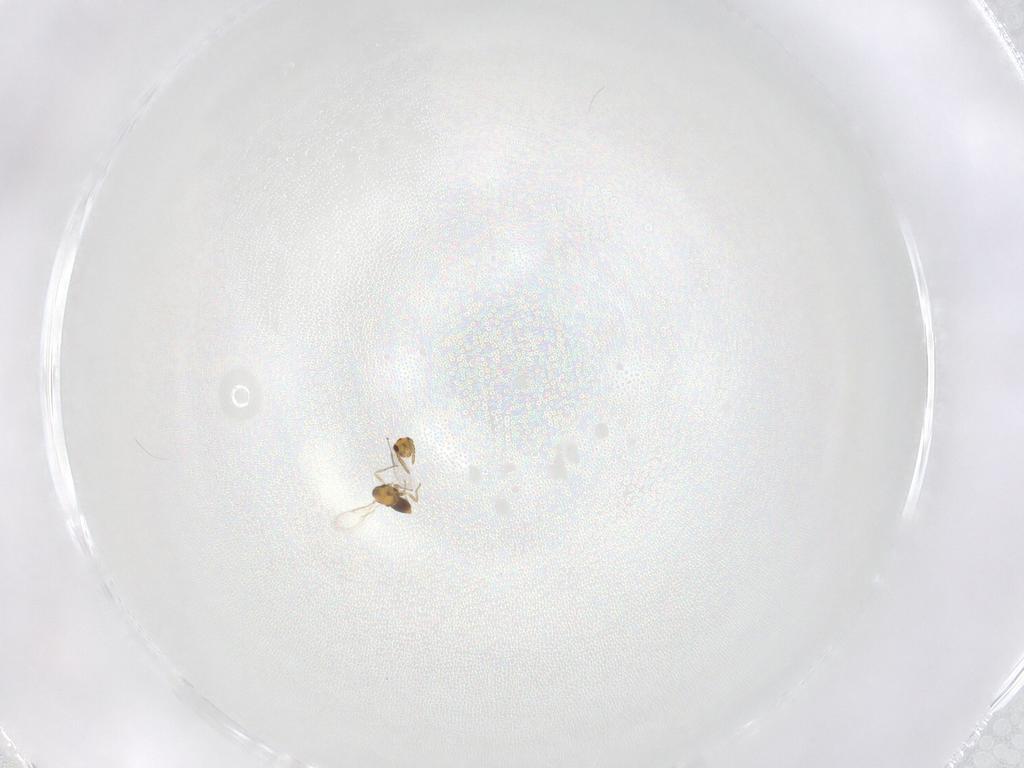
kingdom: Animalia
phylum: Arthropoda
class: Insecta
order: Hymenoptera
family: Aphelinidae
